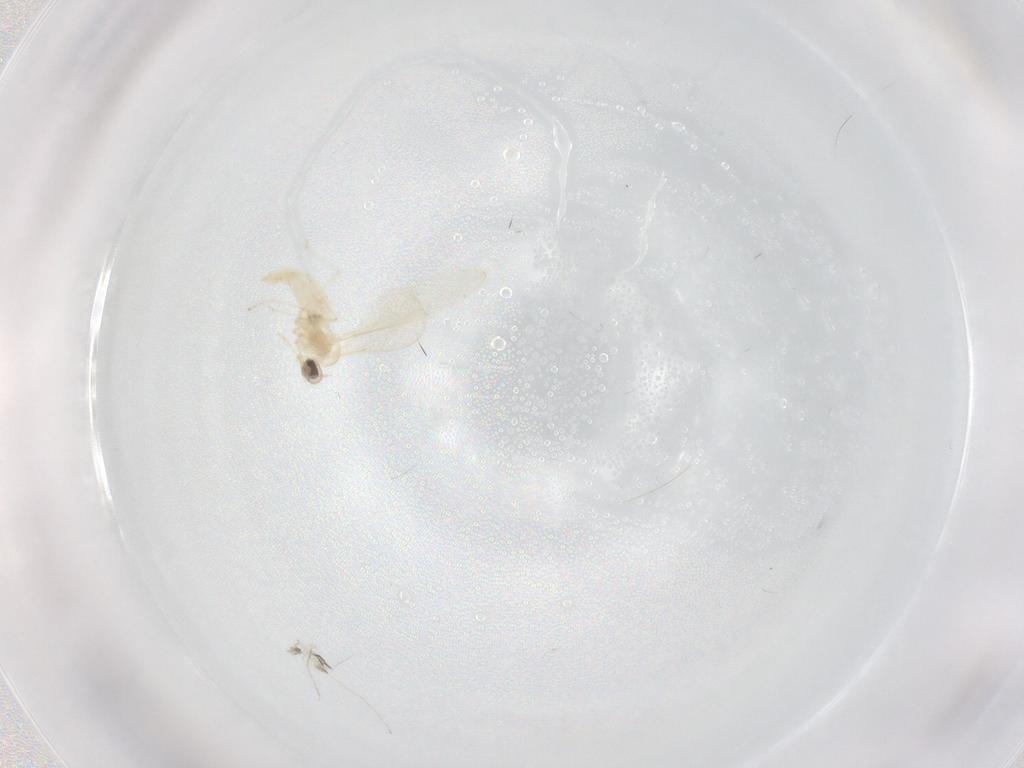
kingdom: Animalia
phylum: Arthropoda
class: Insecta
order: Diptera
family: Cecidomyiidae
